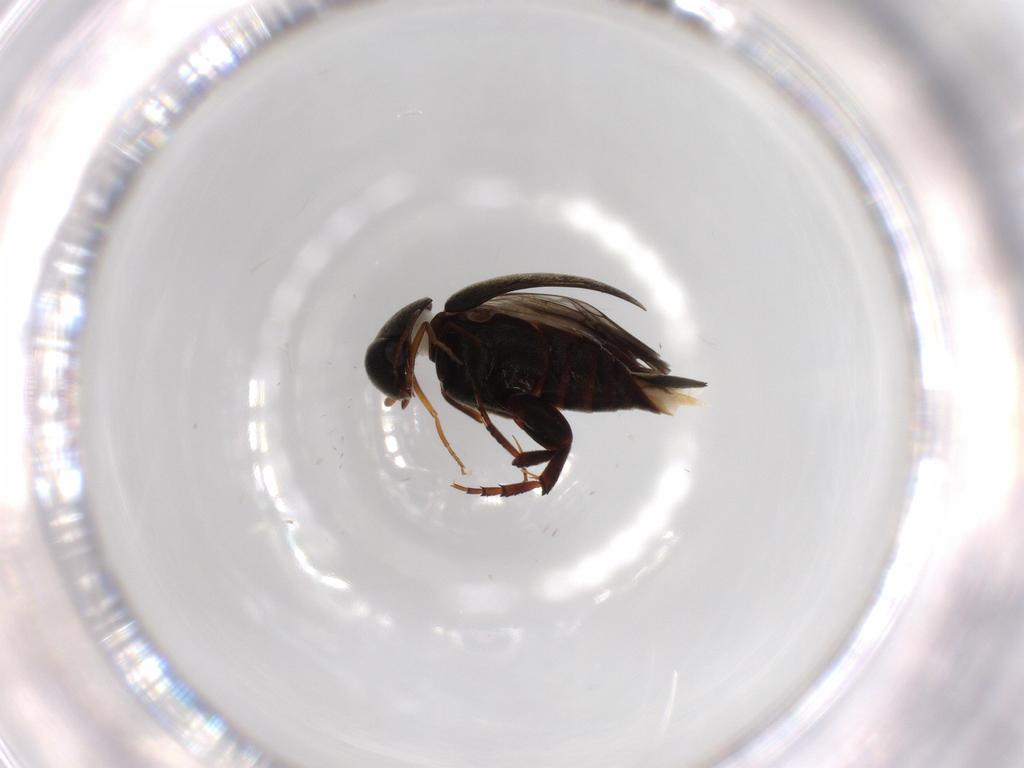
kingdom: Animalia
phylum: Arthropoda
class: Insecta
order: Coleoptera
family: Mordellidae
